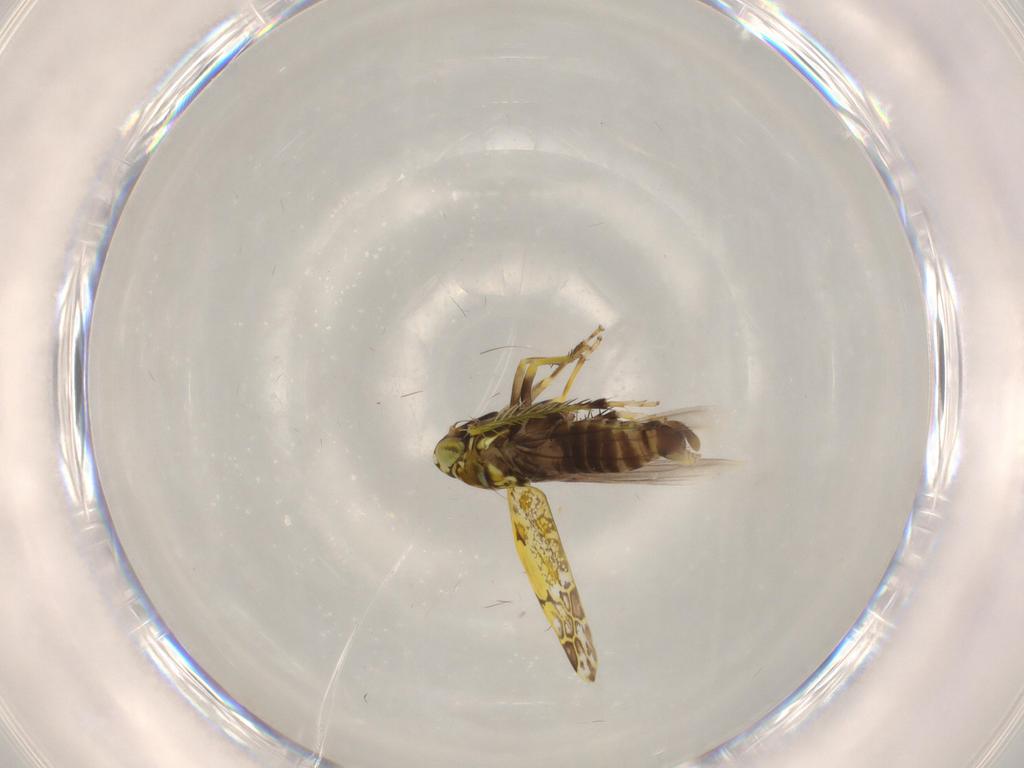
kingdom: Animalia
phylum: Arthropoda
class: Insecta
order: Hemiptera
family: Cicadellidae
